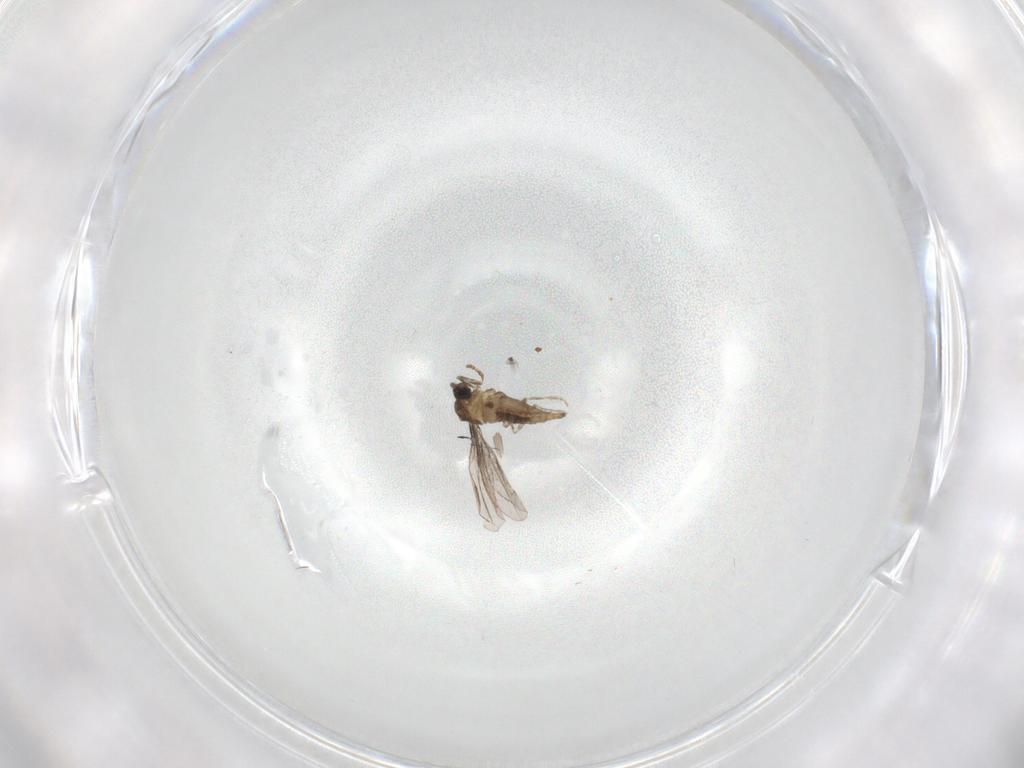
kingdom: Animalia
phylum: Arthropoda
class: Insecta
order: Diptera
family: Cecidomyiidae
